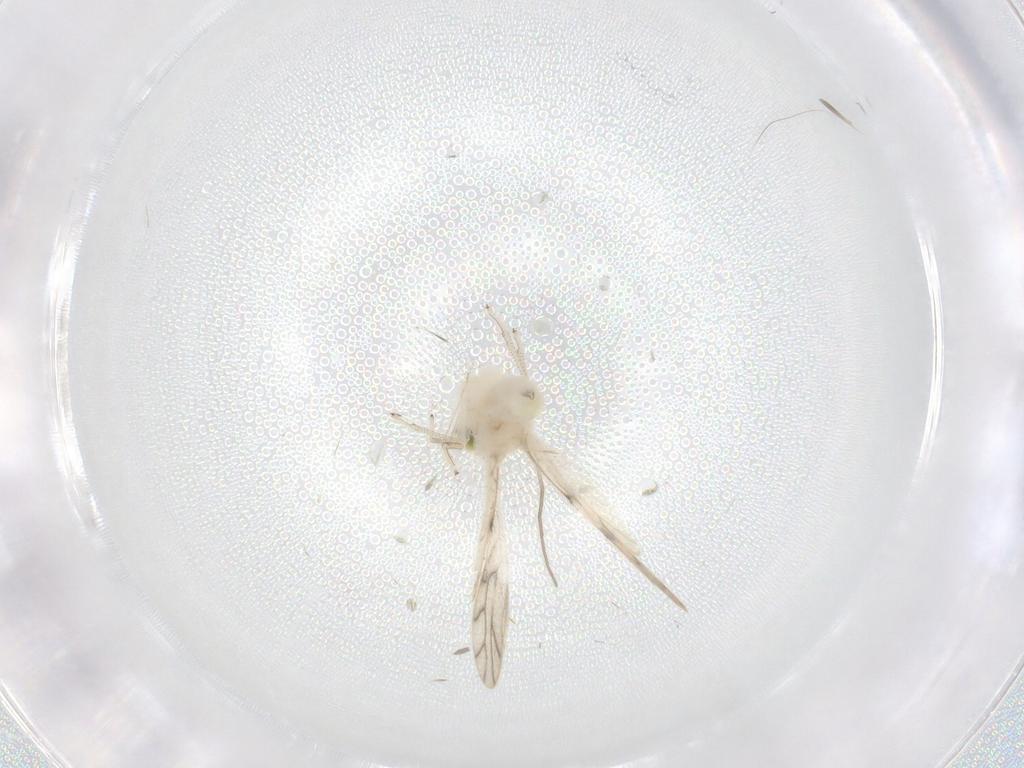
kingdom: Animalia
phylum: Arthropoda
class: Insecta
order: Psocodea
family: Caeciliusidae
